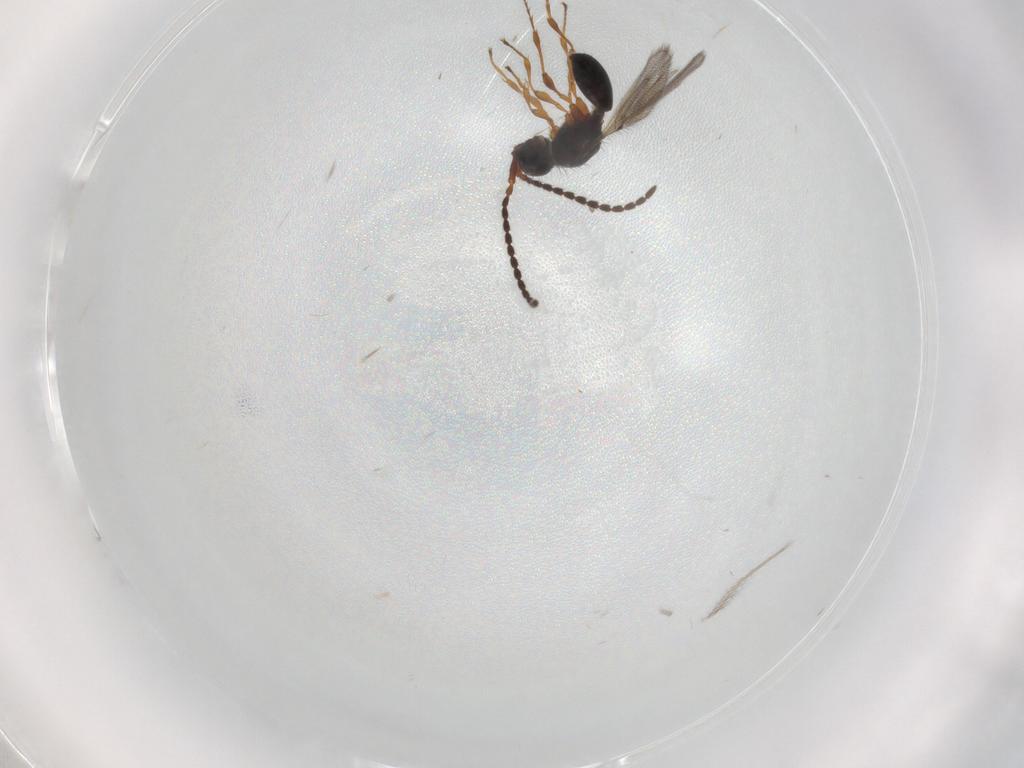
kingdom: Animalia
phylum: Arthropoda
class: Insecta
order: Hymenoptera
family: Diapriidae
